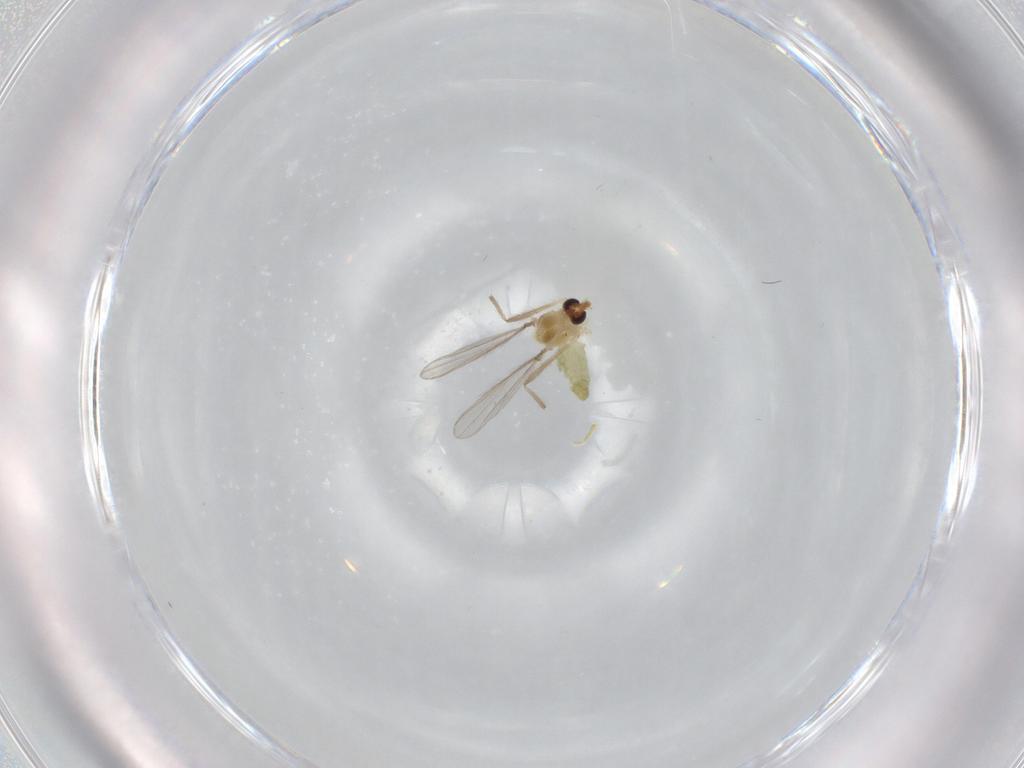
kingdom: Animalia
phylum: Arthropoda
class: Insecta
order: Diptera
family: Chironomidae
